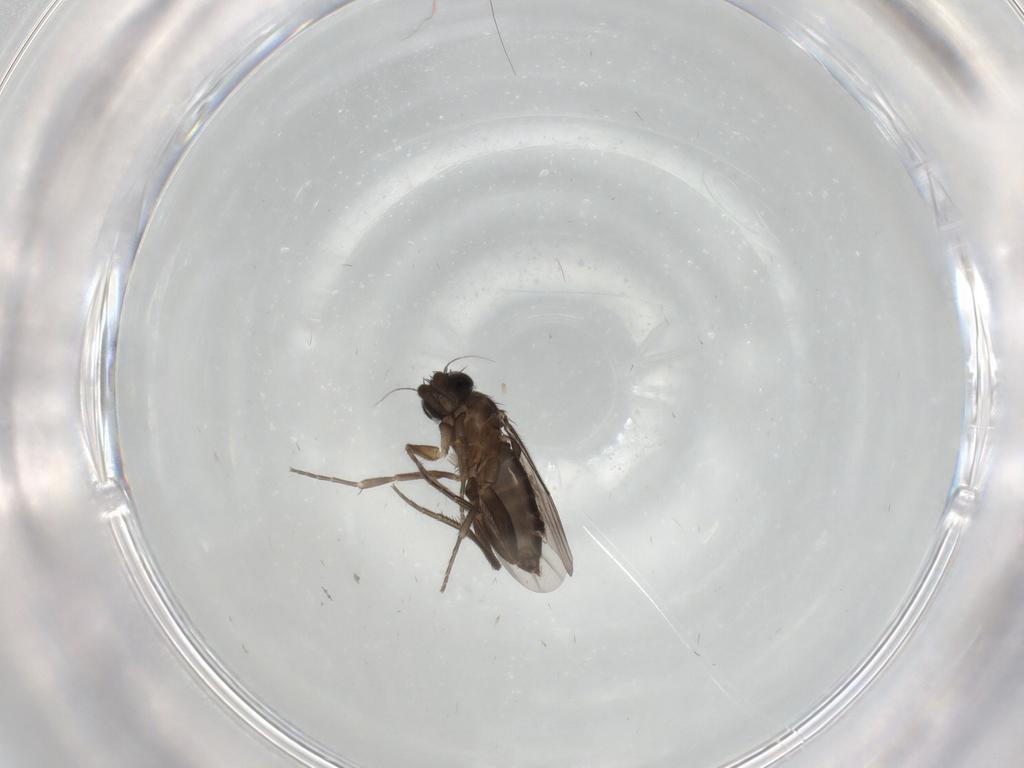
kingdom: Animalia
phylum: Arthropoda
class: Insecta
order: Diptera
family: Phoridae
